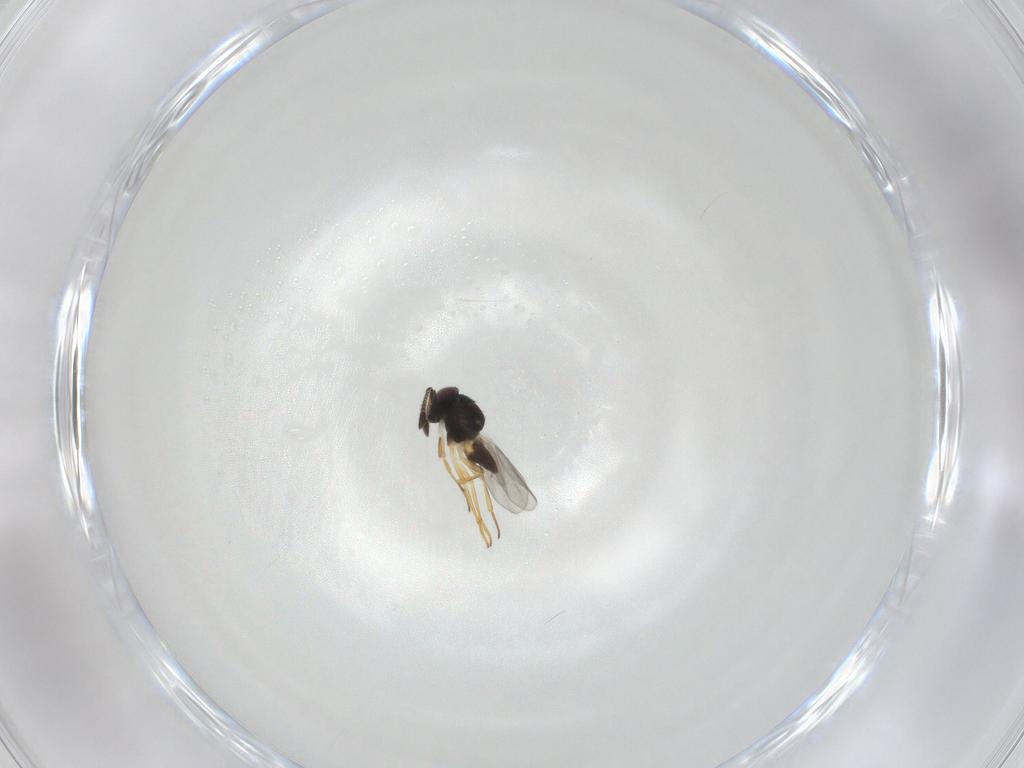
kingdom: Animalia
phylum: Arthropoda
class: Insecta
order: Hymenoptera
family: Encyrtidae
